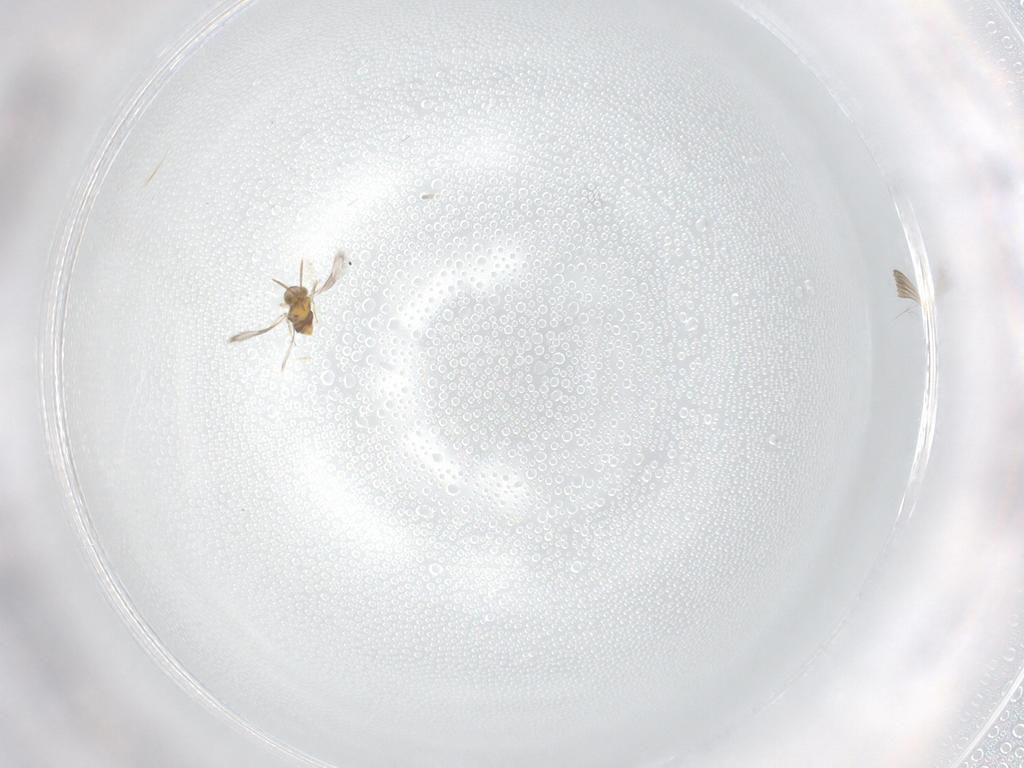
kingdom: Animalia
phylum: Arthropoda
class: Insecta
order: Hymenoptera
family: Aphelinidae
